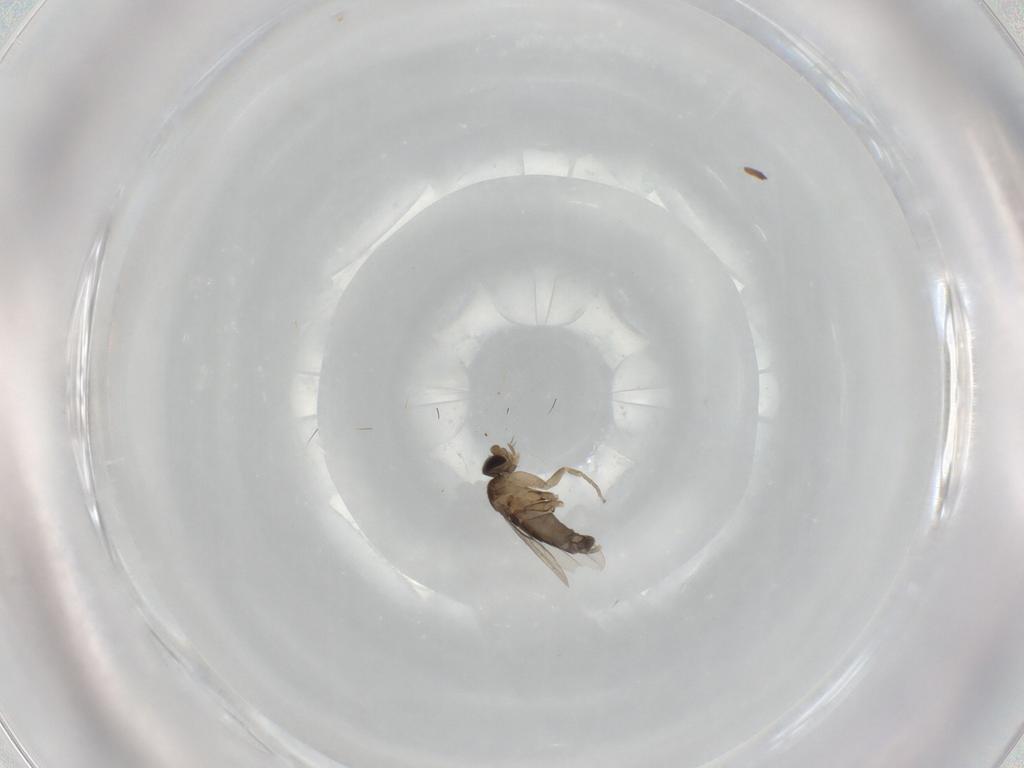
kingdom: Animalia
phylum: Arthropoda
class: Insecta
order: Diptera
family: Phoridae
